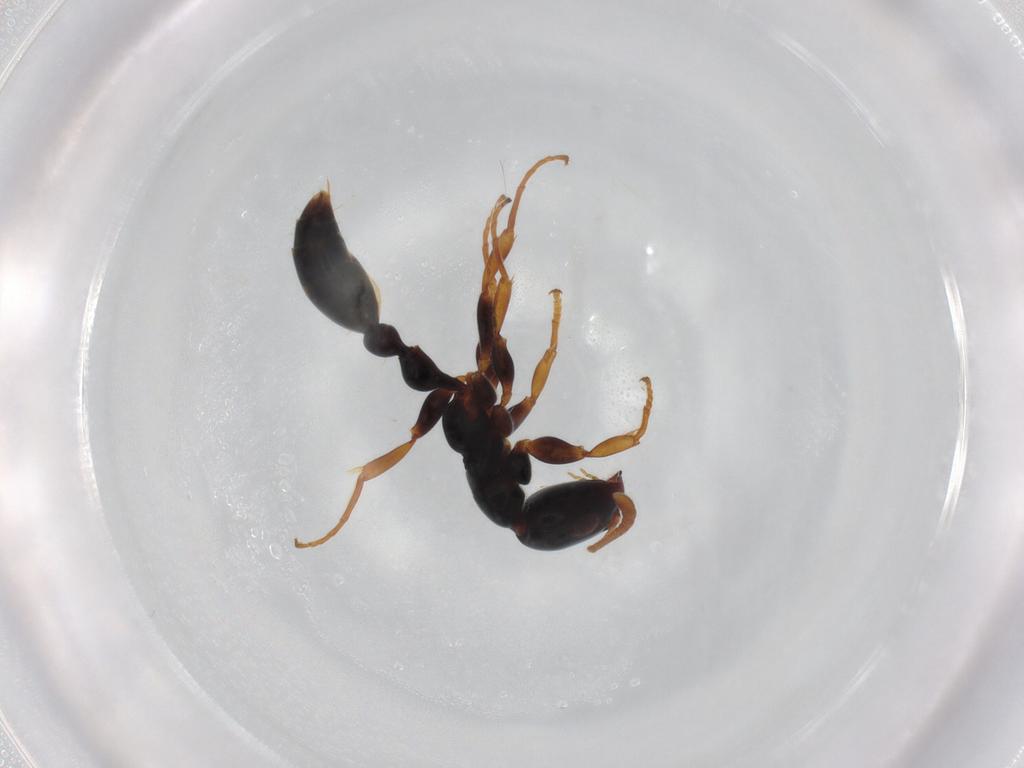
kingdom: Animalia
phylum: Arthropoda
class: Insecta
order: Hymenoptera
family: Formicidae
